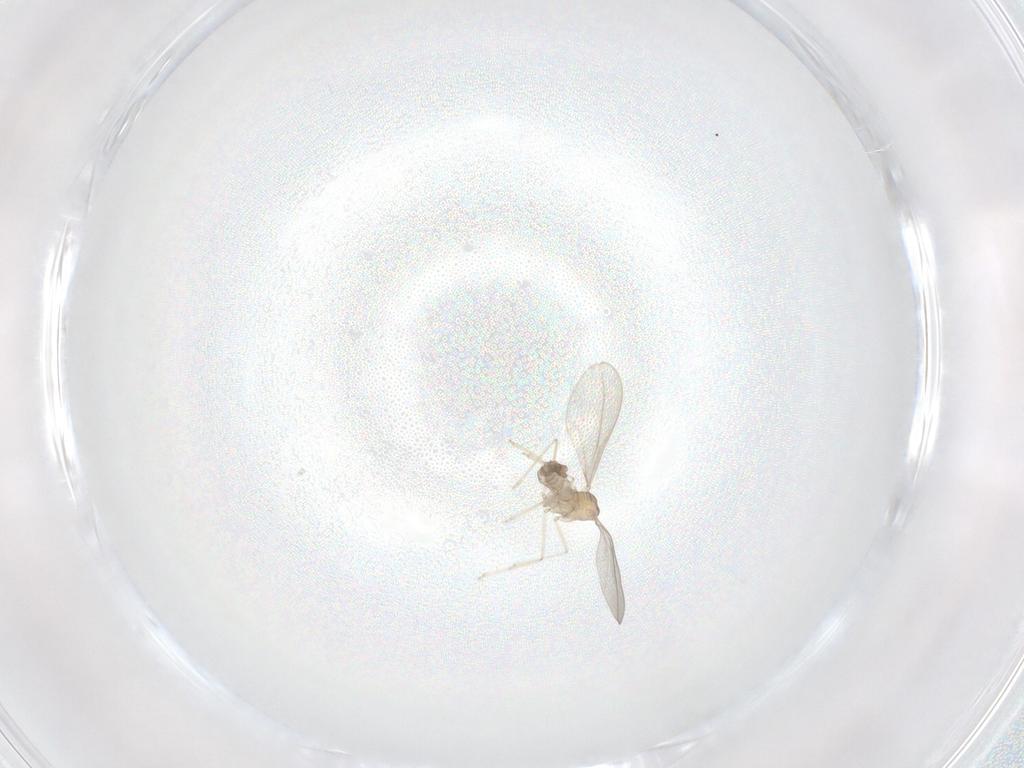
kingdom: Animalia
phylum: Arthropoda
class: Insecta
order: Diptera
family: Cecidomyiidae
